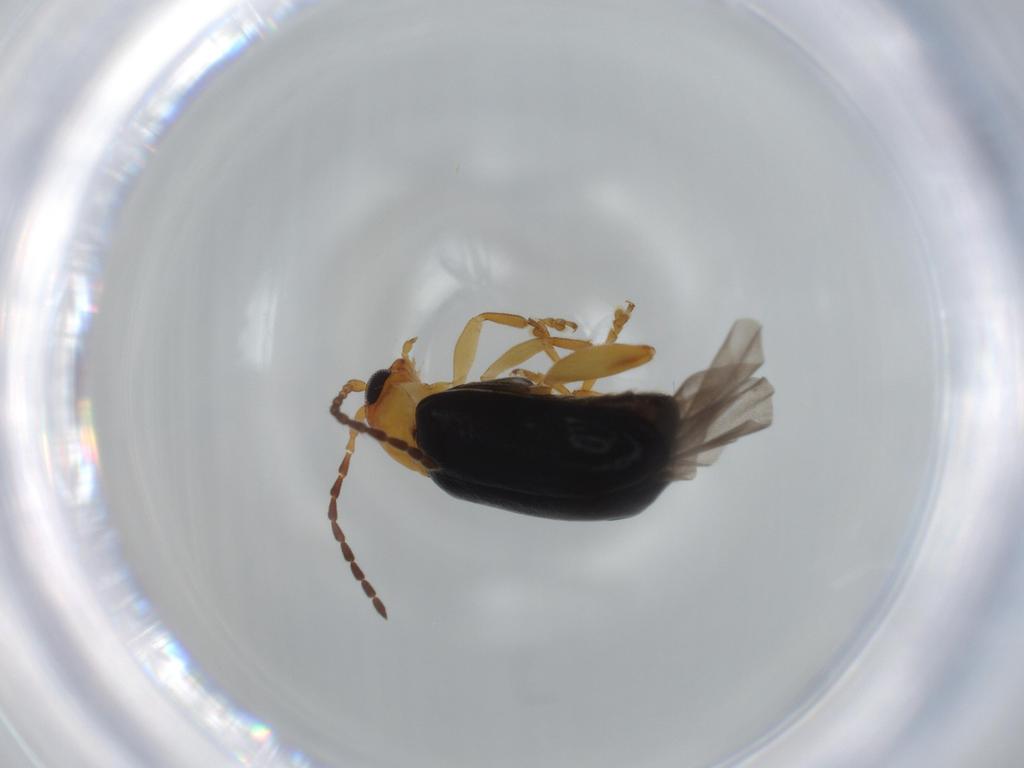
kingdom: Animalia
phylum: Arthropoda
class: Insecta
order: Coleoptera
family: Chrysomelidae
